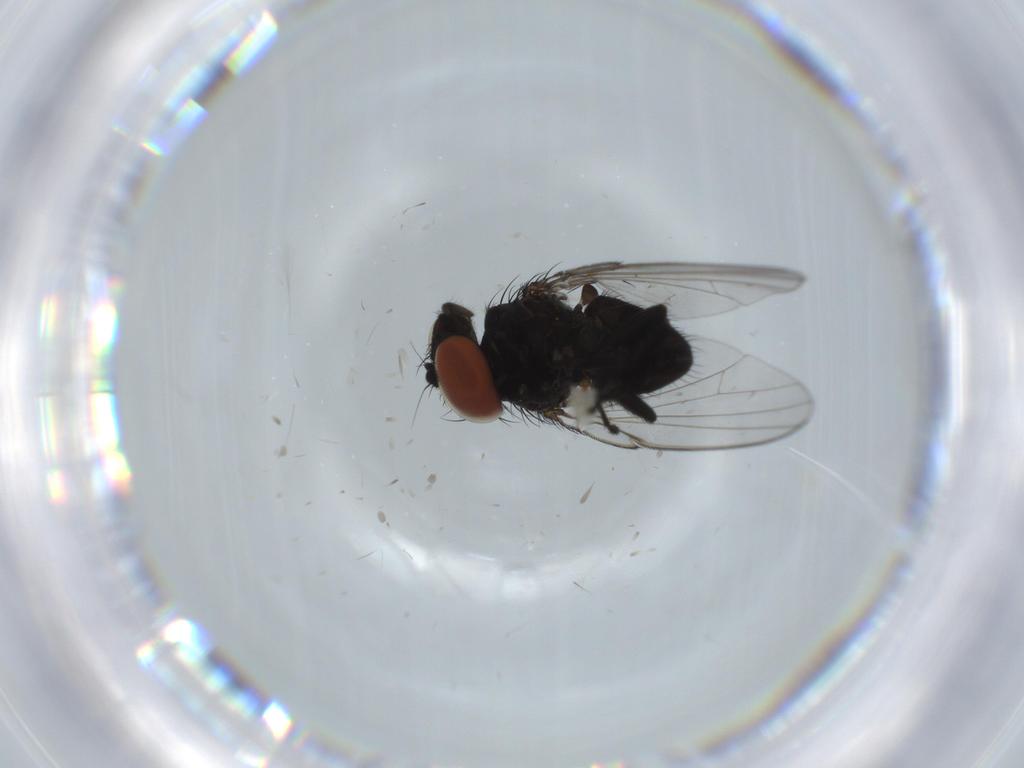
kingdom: Animalia
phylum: Arthropoda
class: Insecta
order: Diptera
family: Milichiidae
